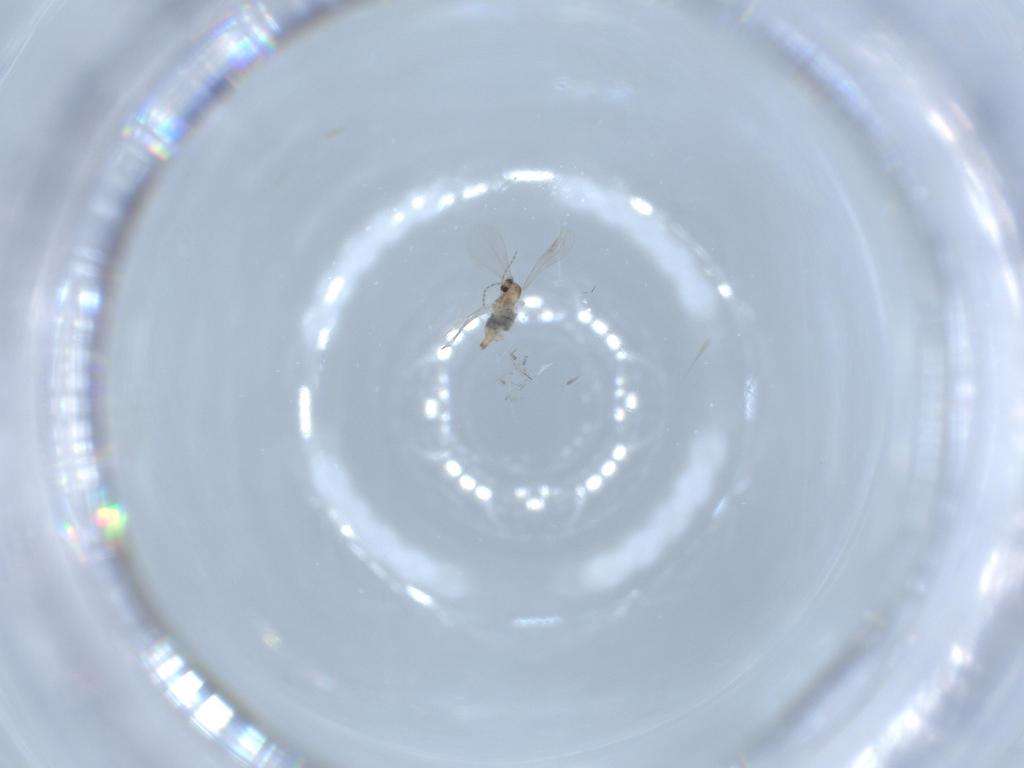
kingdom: Animalia
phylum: Arthropoda
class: Insecta
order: Diptera
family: Cecidomyiidae
